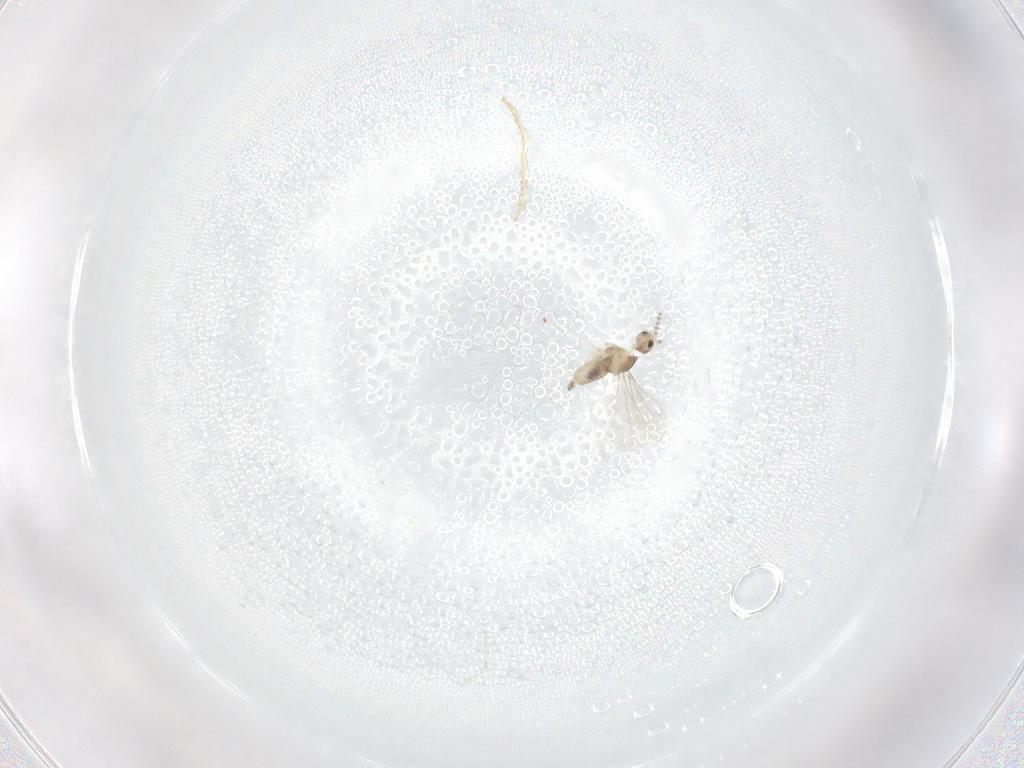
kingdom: Animalia
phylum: Arthropoda
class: Insecta
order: Diptera
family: Cecidomyiidae
